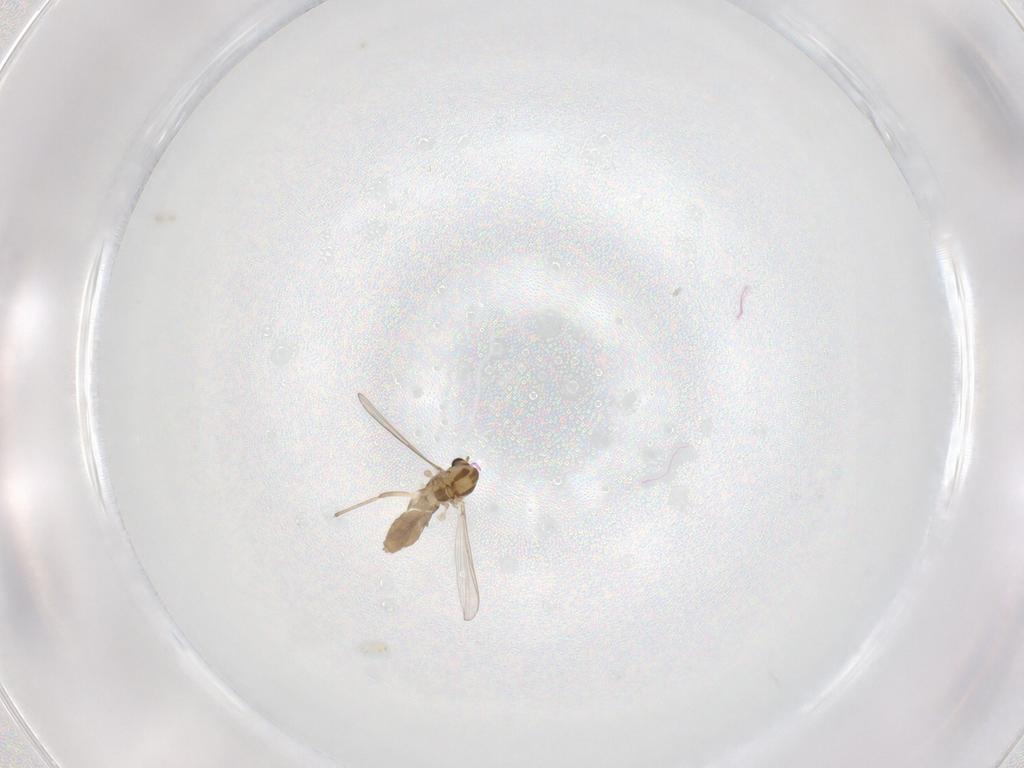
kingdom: Animalia
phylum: Arthropoda
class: Insecta
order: Diptera
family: Chironomidae
